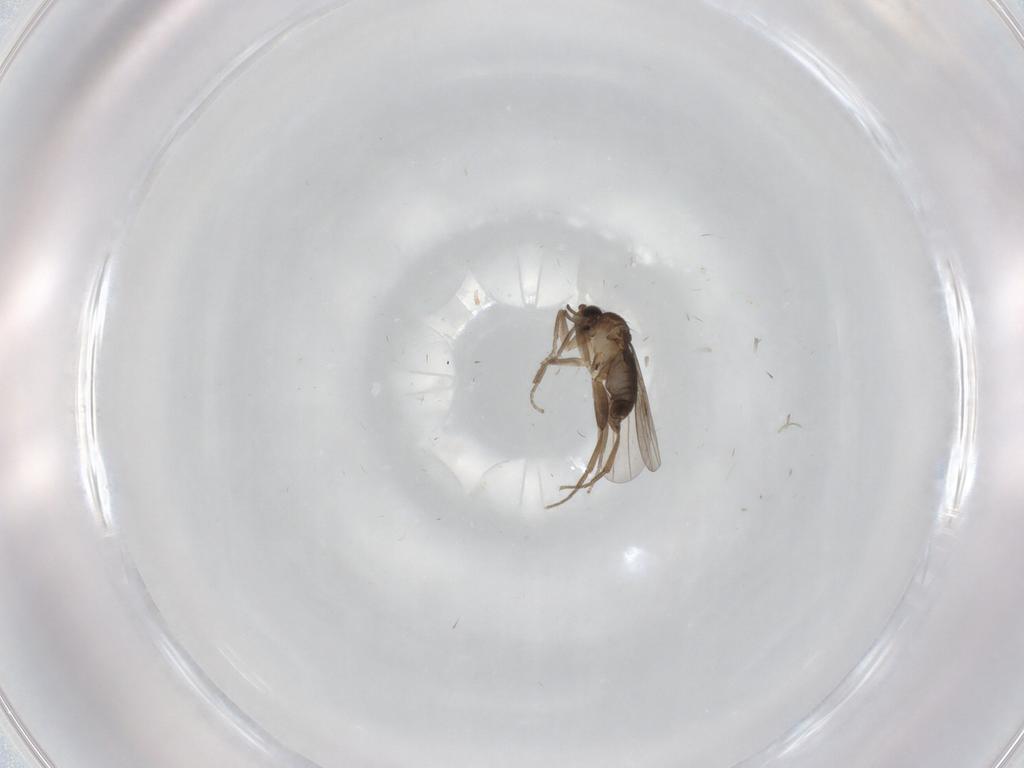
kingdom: Animalia
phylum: Arthropoda
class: Insecta
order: Diptera
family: Limoniidae
